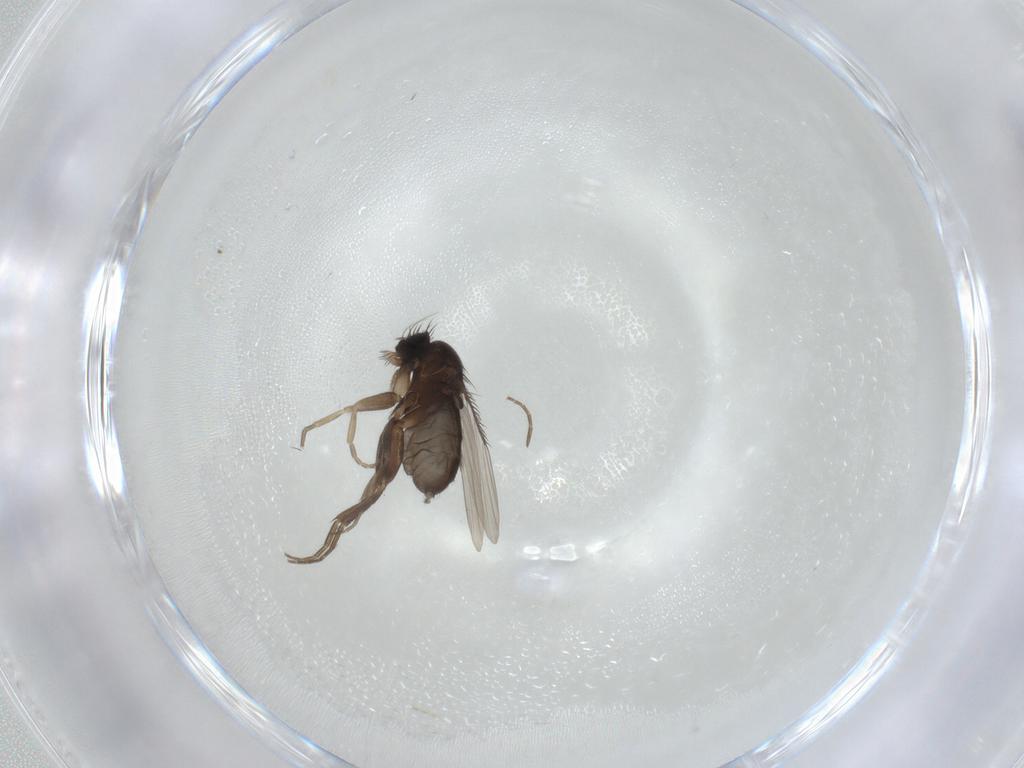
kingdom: Animalia
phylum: Arthropoda
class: Insecta
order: Diptera
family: Phoridae
